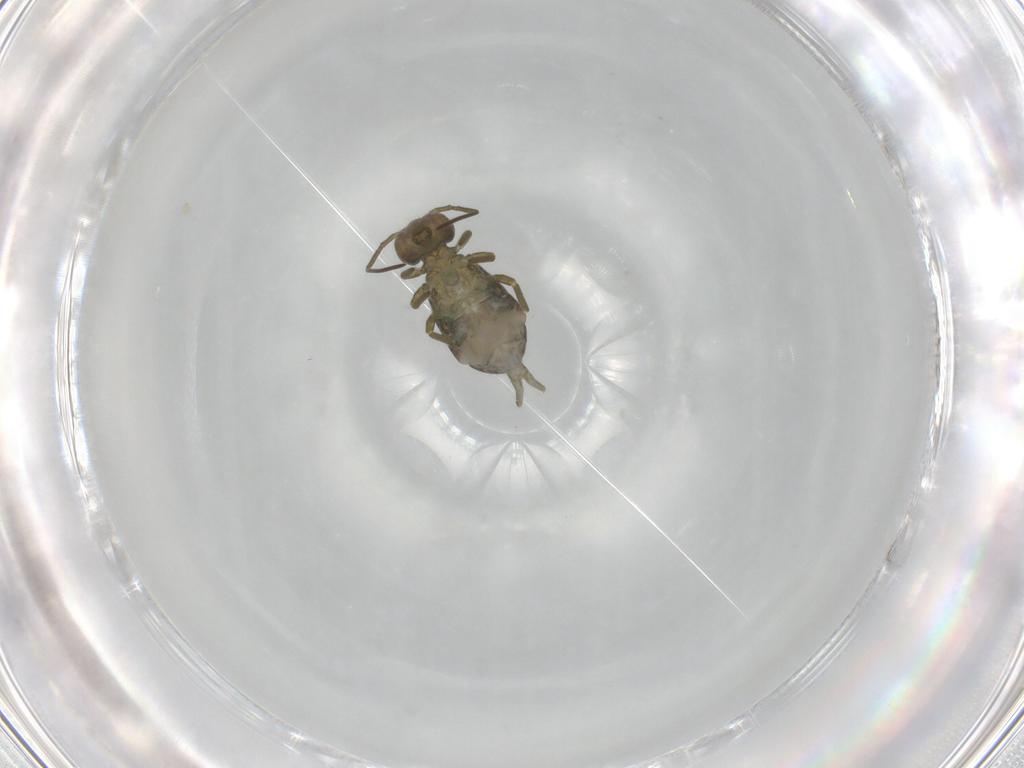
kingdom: Animalia
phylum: Arthropoda
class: Collembola
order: Symphypleona
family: Sminthuridae
